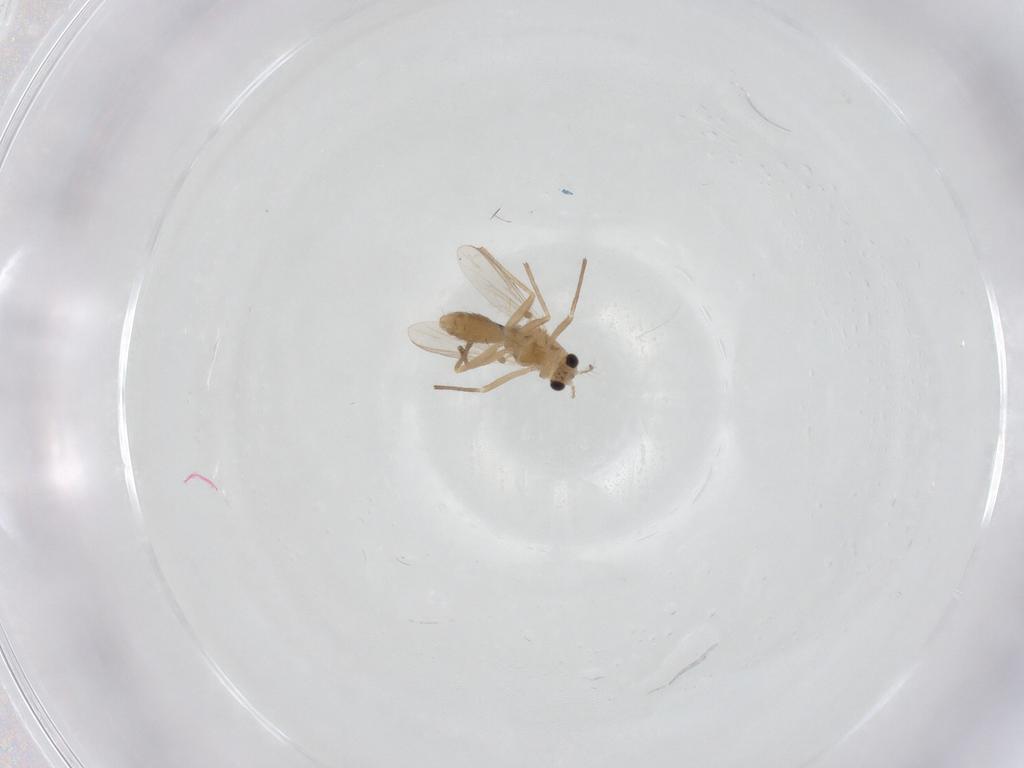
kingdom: Animalia
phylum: Arthropoda
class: Insecta
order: Diptera
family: Chironomidae
